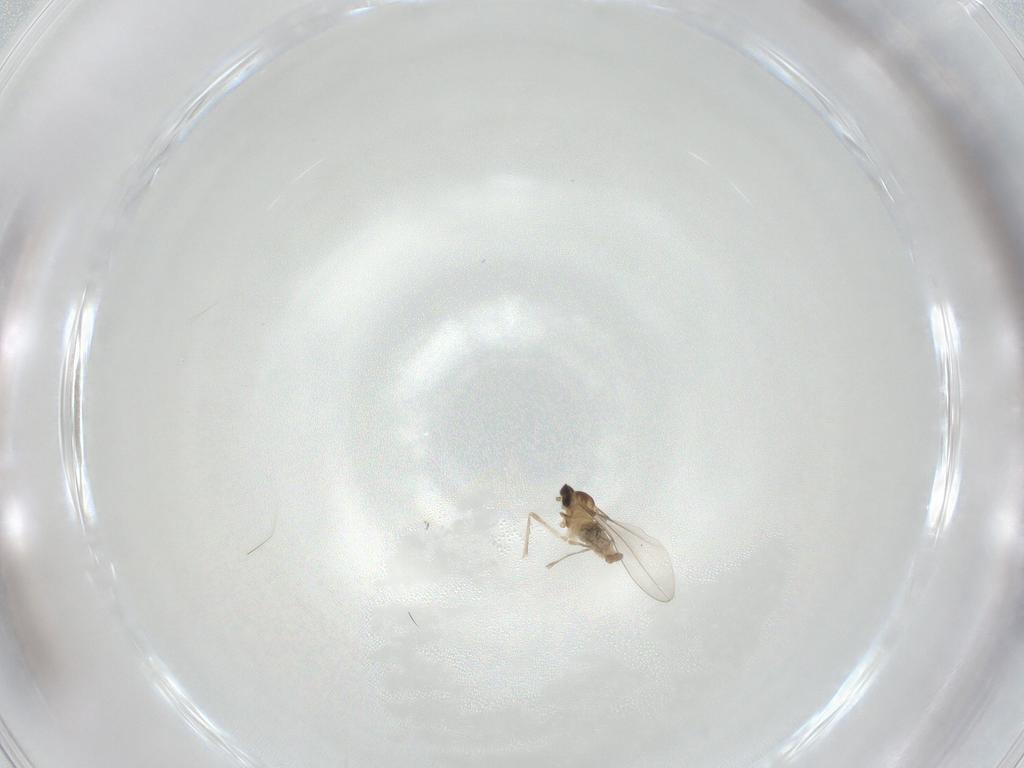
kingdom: Animalia
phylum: Arthropoda
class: Insecta
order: Diptera
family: Cecidomyiidae
